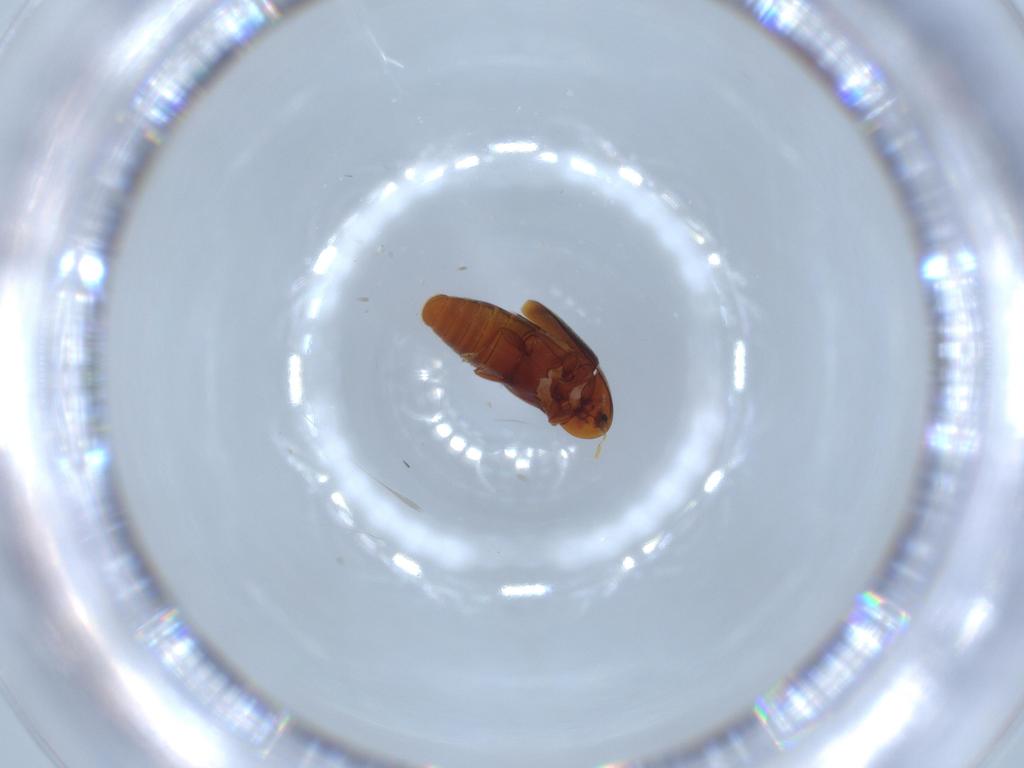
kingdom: Animalia
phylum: Arthropoda
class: Insecta
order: Coleoptera
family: Corylophidae
